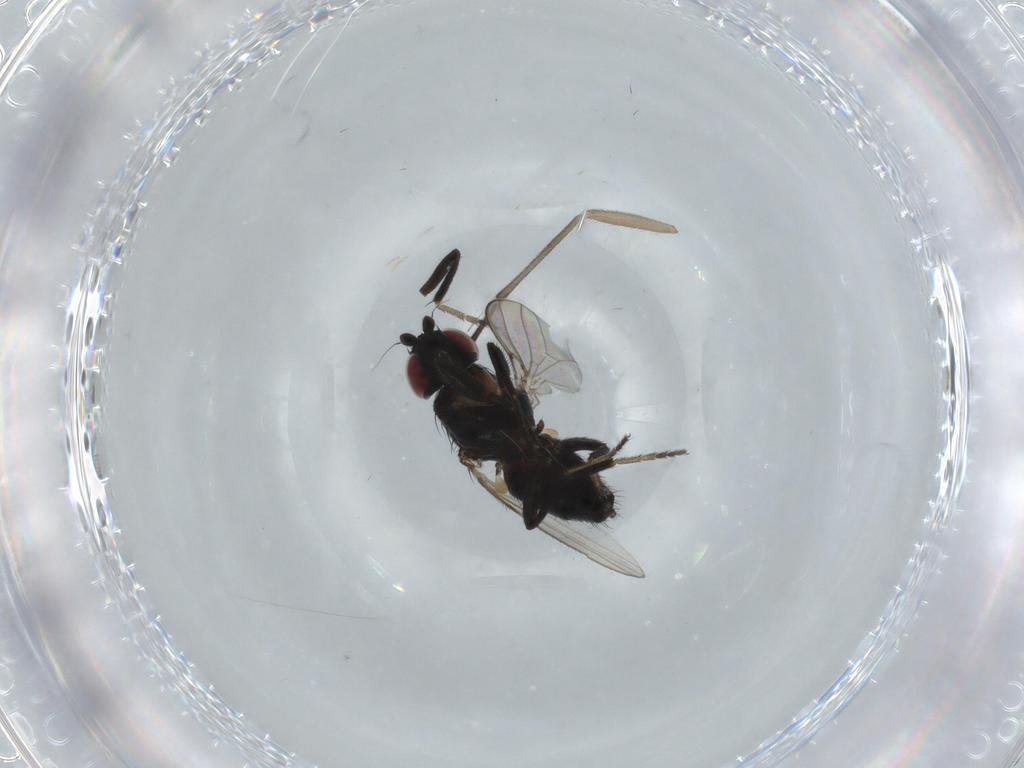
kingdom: Animalia
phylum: Arthropoda
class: Insecta
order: Diptera
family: Milichiidae
